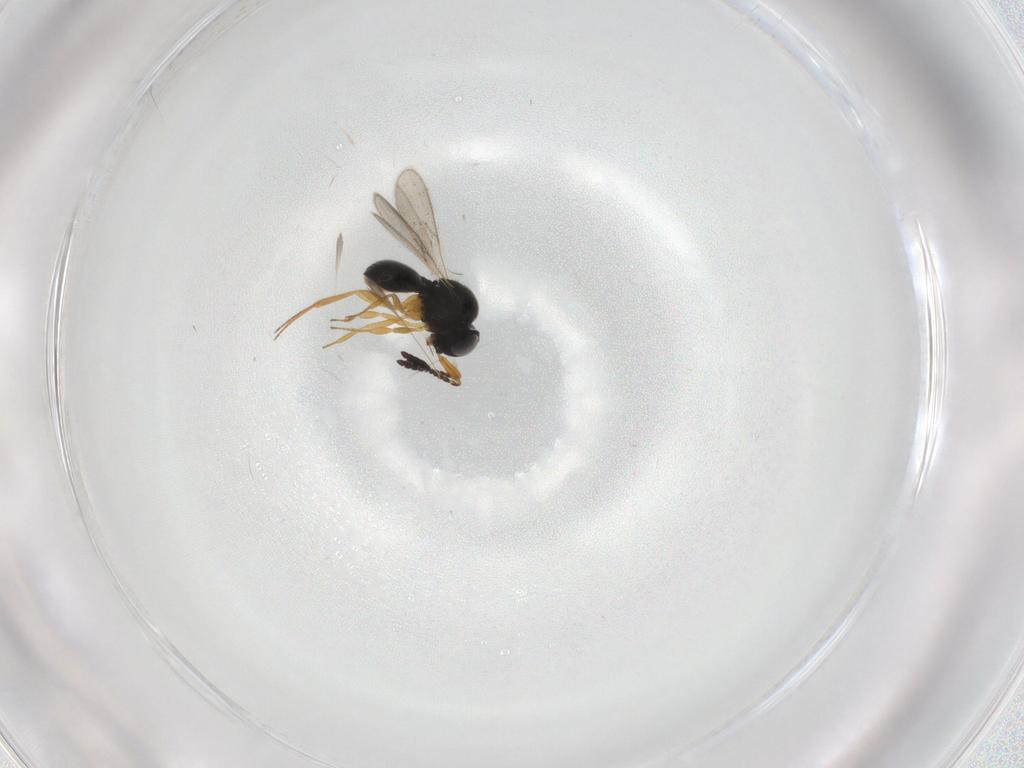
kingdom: Animalia
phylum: Arthropoda
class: Insecta
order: Hymenoptera
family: Scelionidae
